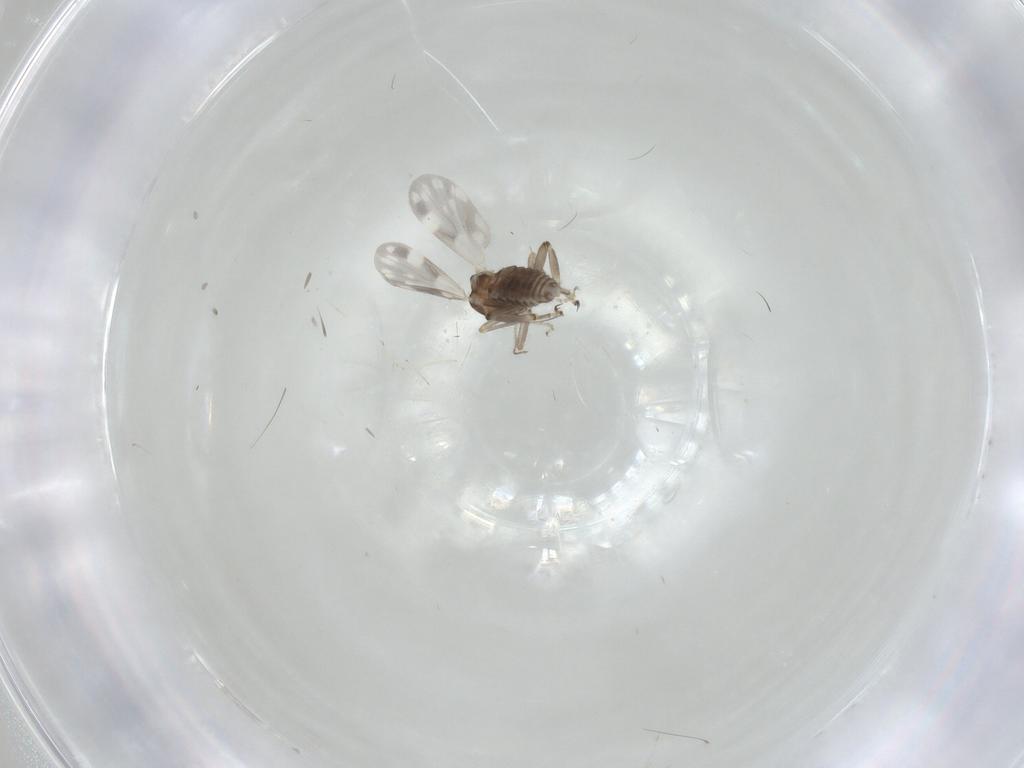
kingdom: Animalia
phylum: Arthropoda
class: Insecta
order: Diptera
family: Ceratopogonidae
